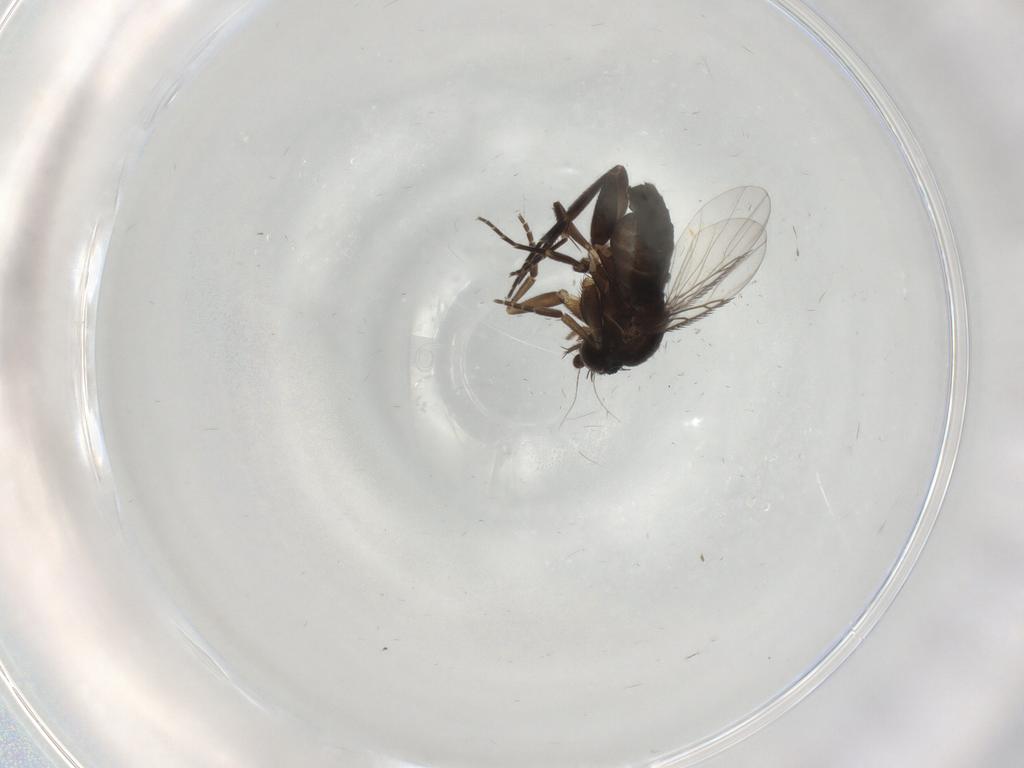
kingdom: Animalia
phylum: Arthropoda
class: Insecta
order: Diptera
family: Phoridae
